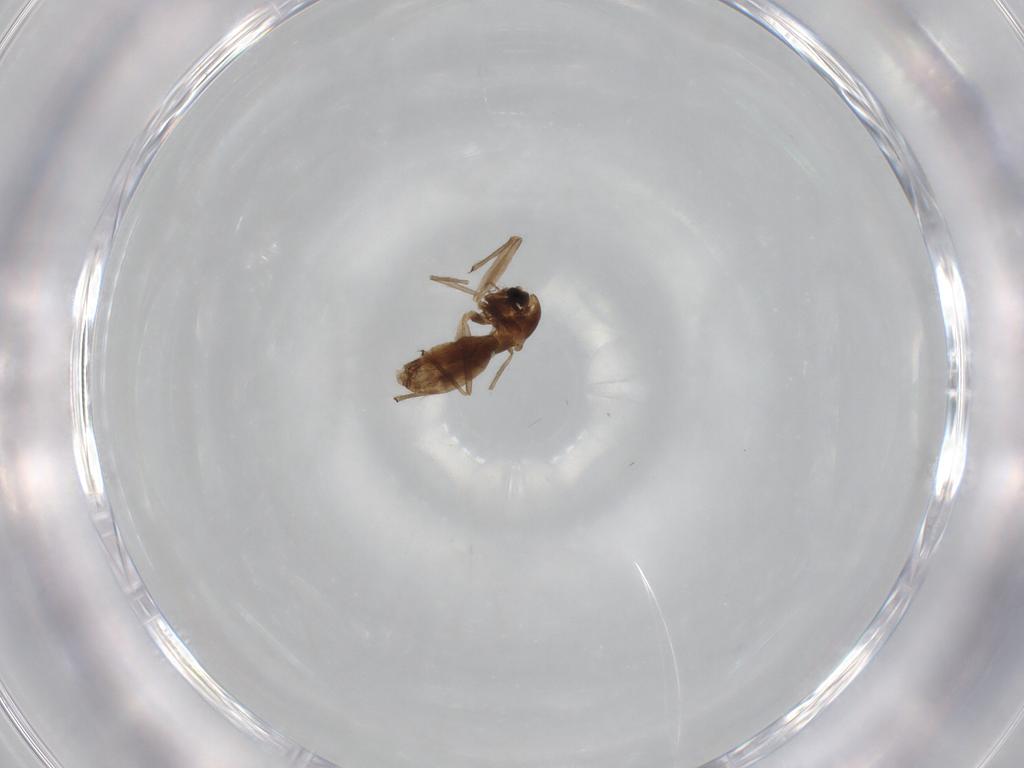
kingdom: Animalia
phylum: Arthropoda
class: Insecta
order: Diptera
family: Chironomidae
